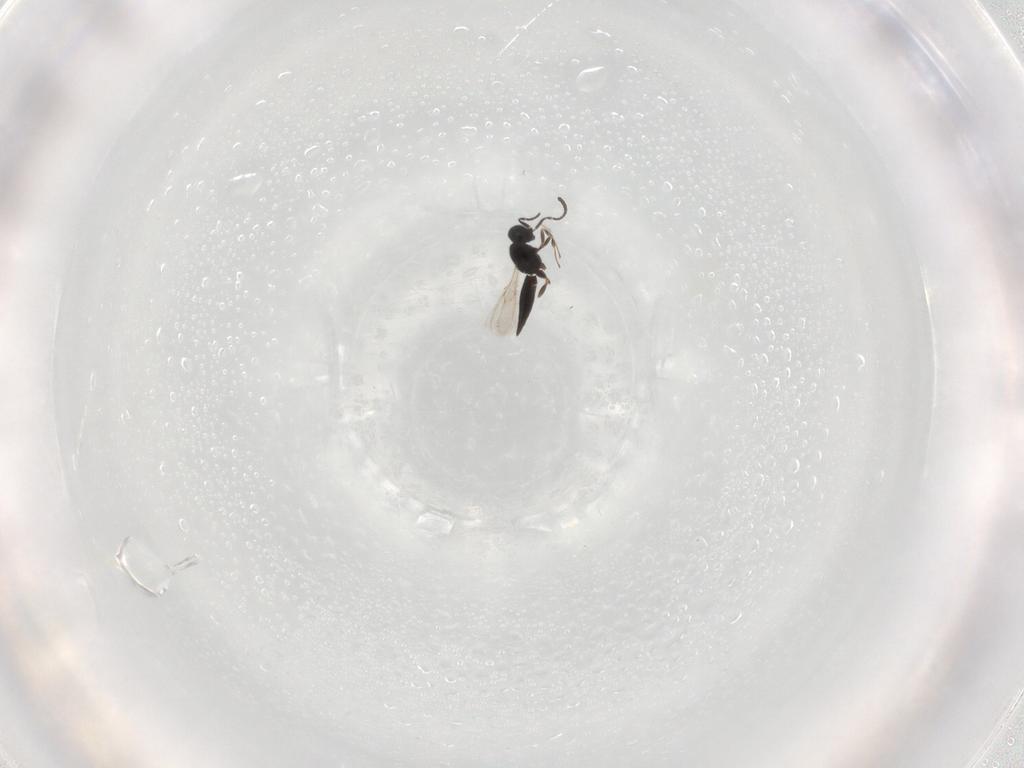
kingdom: Animalia
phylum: Arthropoda
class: Insecta
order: Hymenoptera
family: Scelionidae
